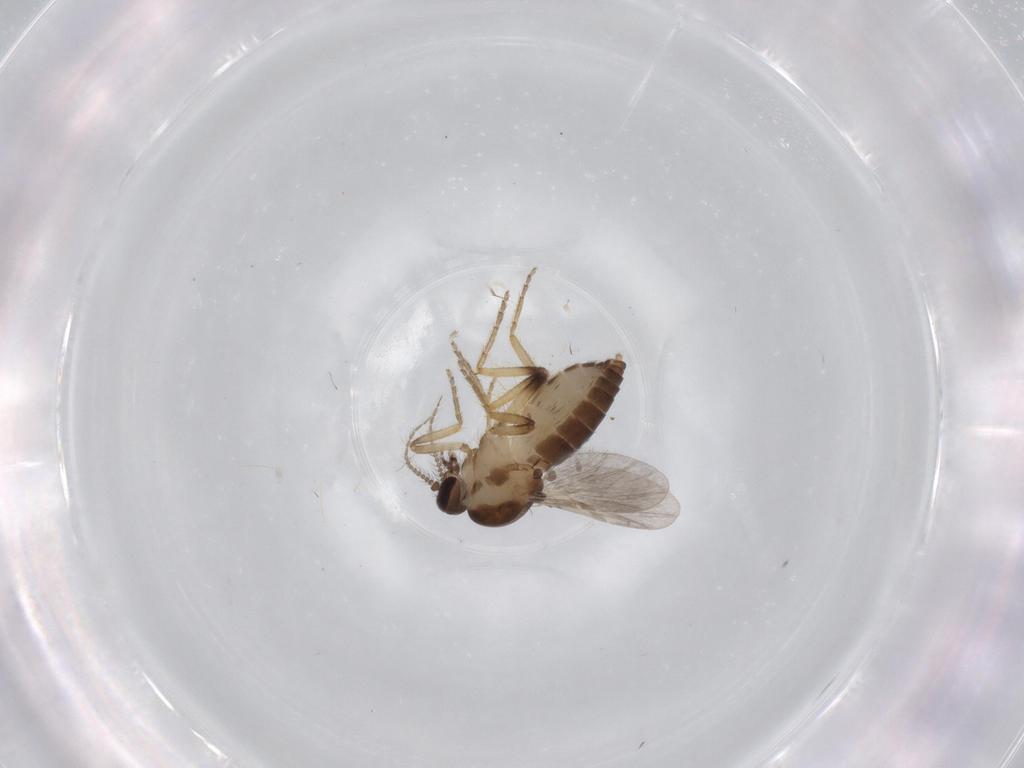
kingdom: Animalia
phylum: Arthropoda
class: Insecta
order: Diptera
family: Ceratopogonidae
